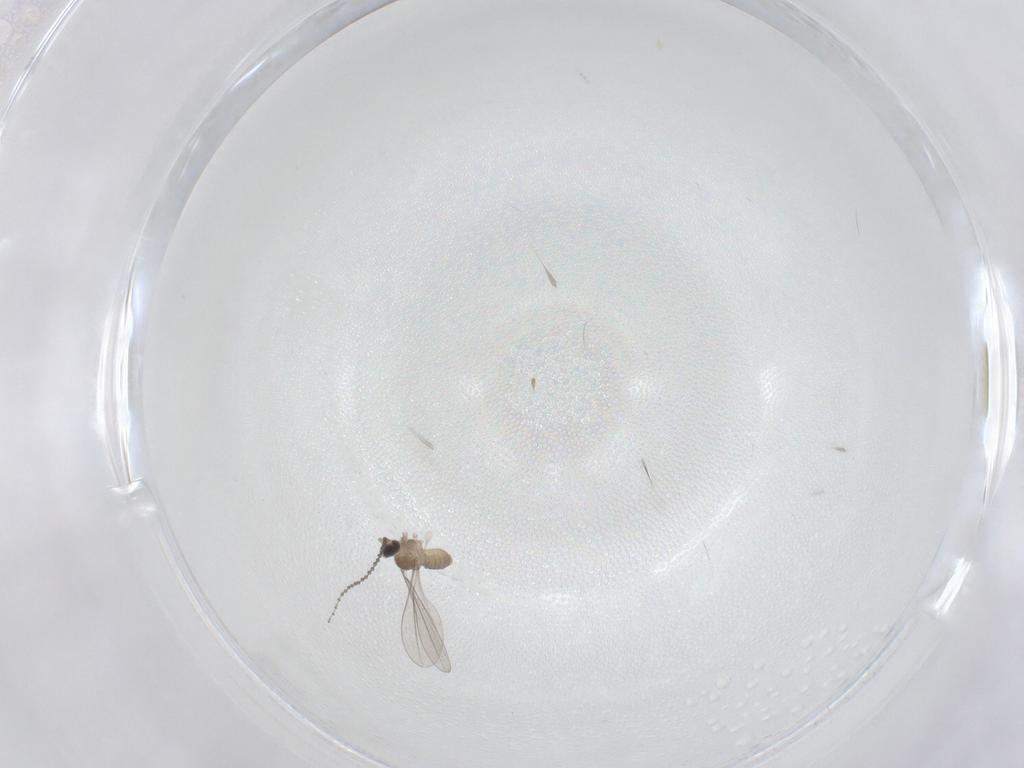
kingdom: Animalia
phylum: Arthropoda
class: Insecta
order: Diptera
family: Cecidomyiidae
